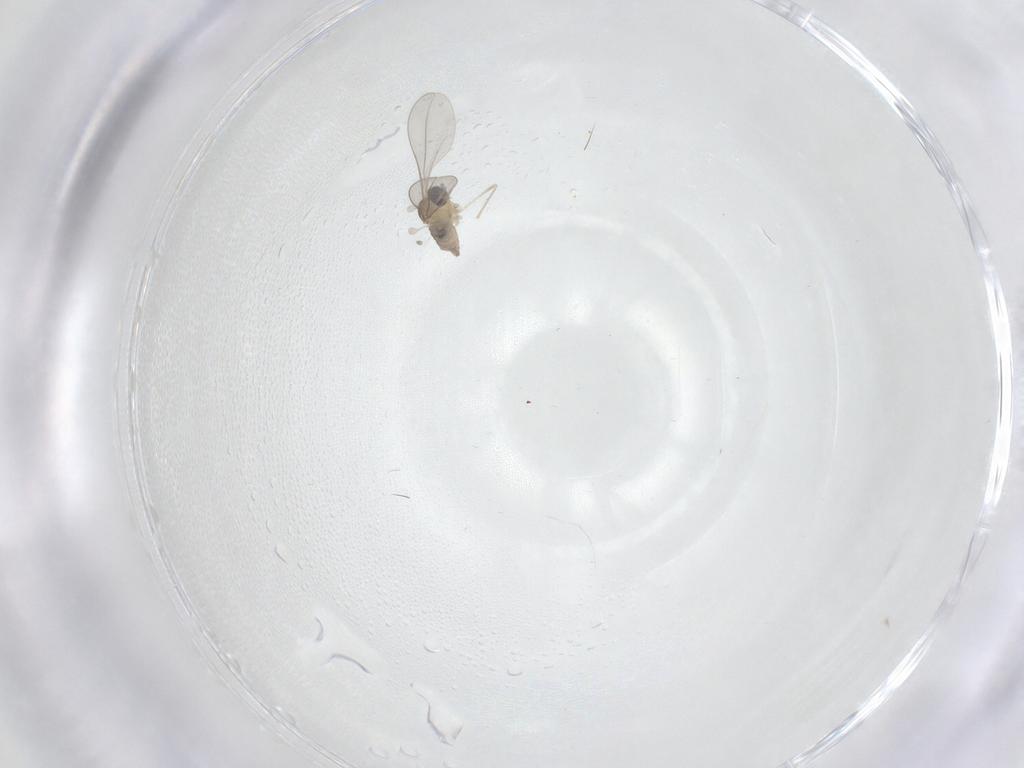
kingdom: Animalia
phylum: Arthropoda
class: Insecta
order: Diptera
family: Cecidomyiidae
